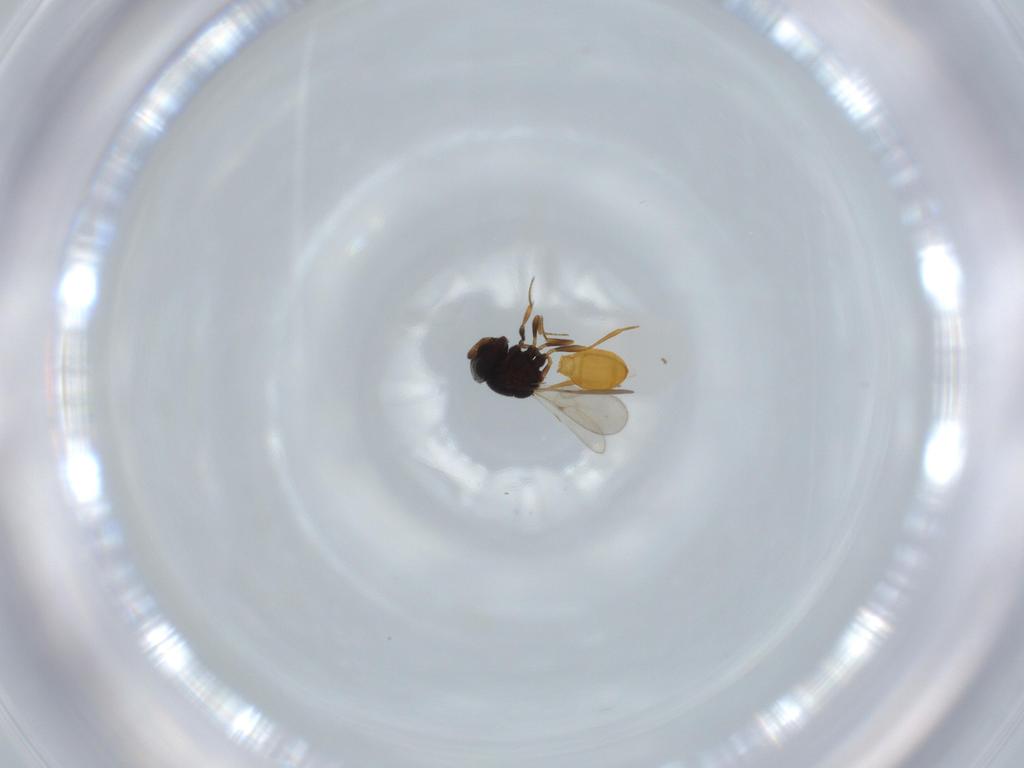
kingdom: Animalia
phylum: Arthropoda
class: Insecta
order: Hymenoptera
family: Scelionidae
